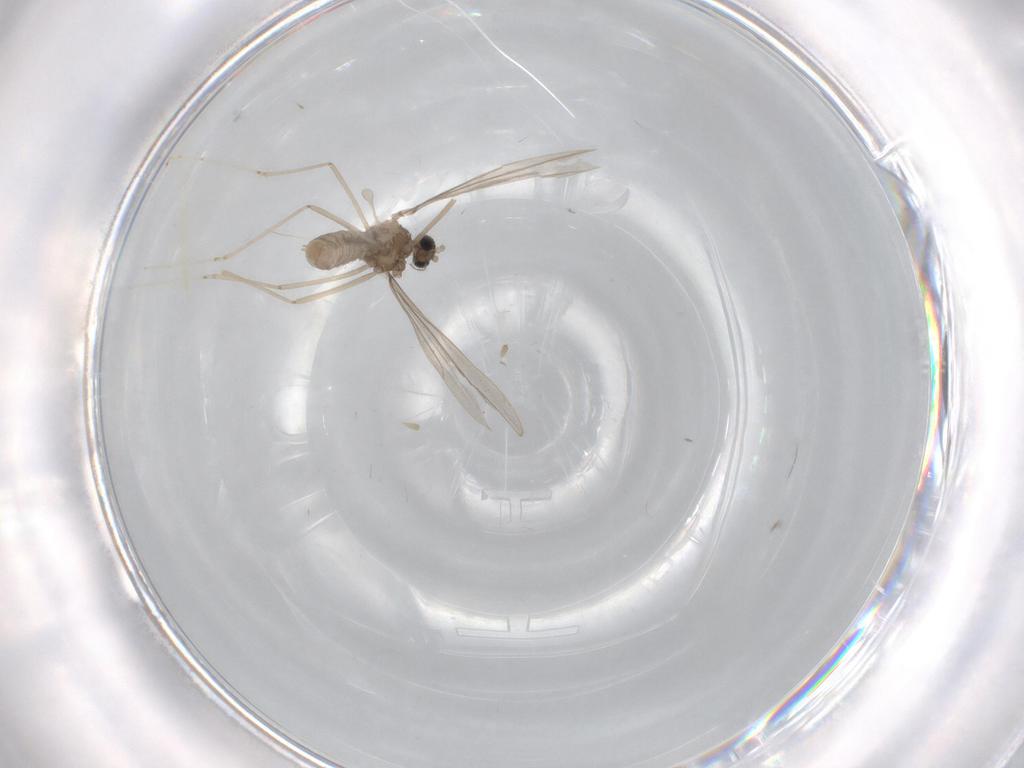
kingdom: Animalia
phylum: Arthropoda
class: Insecta
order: Diptera
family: Cecidomyiidae
